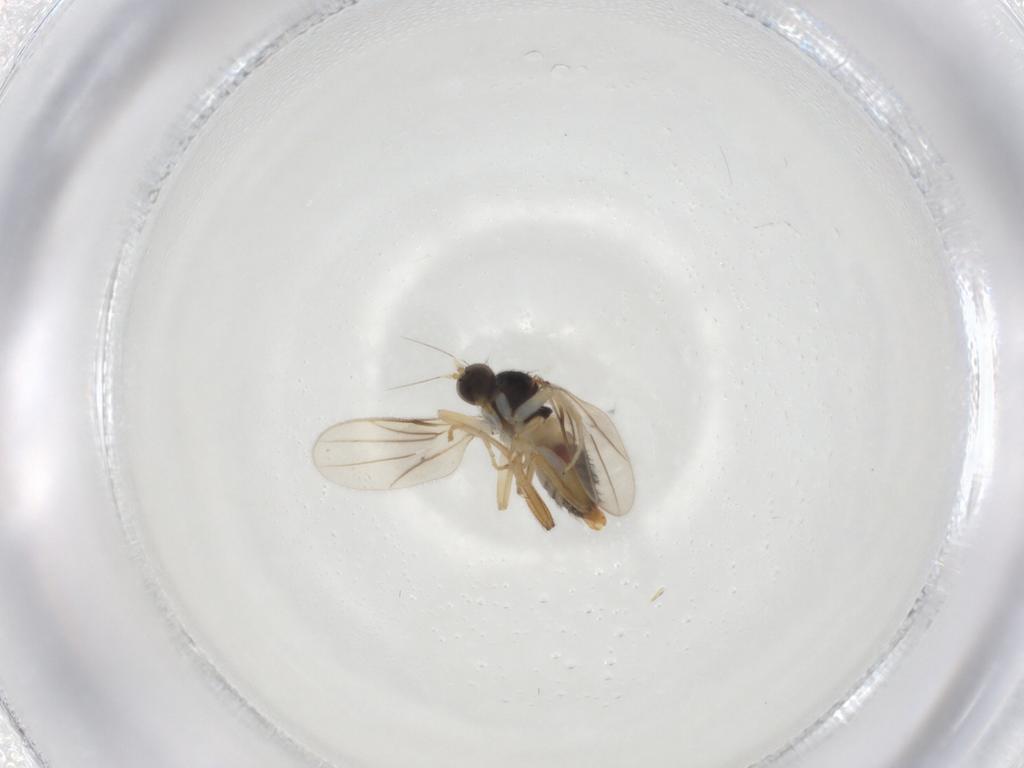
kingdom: Animalia
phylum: Arthropoda
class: Insecta
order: Diptera
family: Hybotidae
